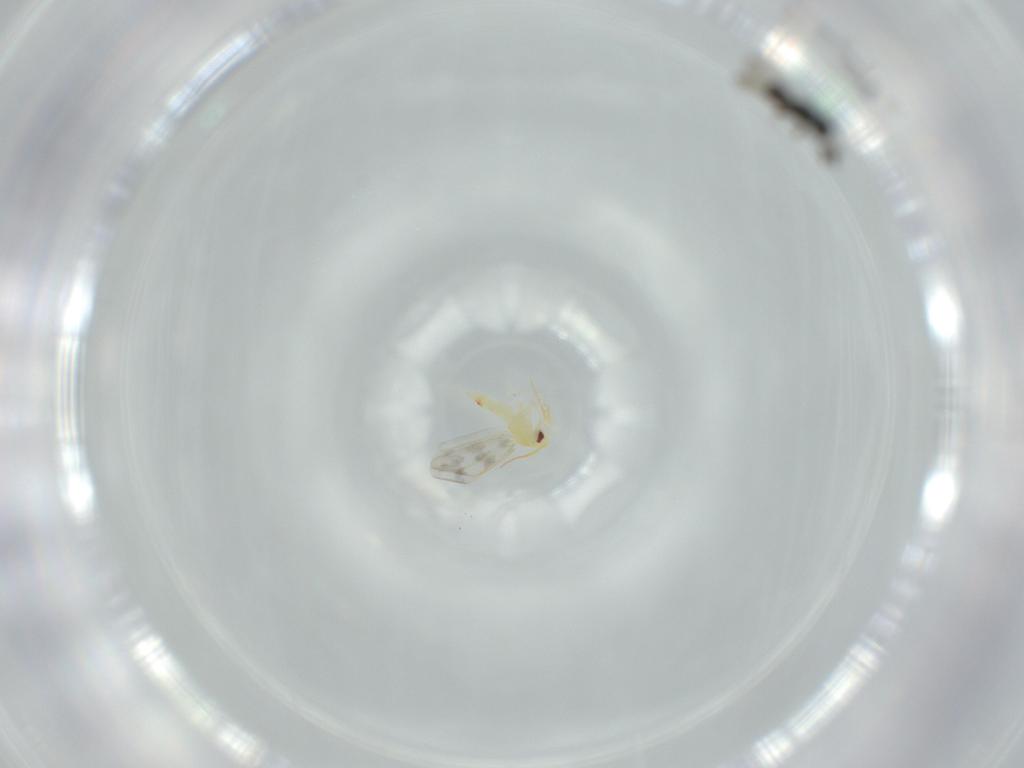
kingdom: Animalia
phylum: Arthropoda
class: Insecta
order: Hemiptera
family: Aleyrodidae
